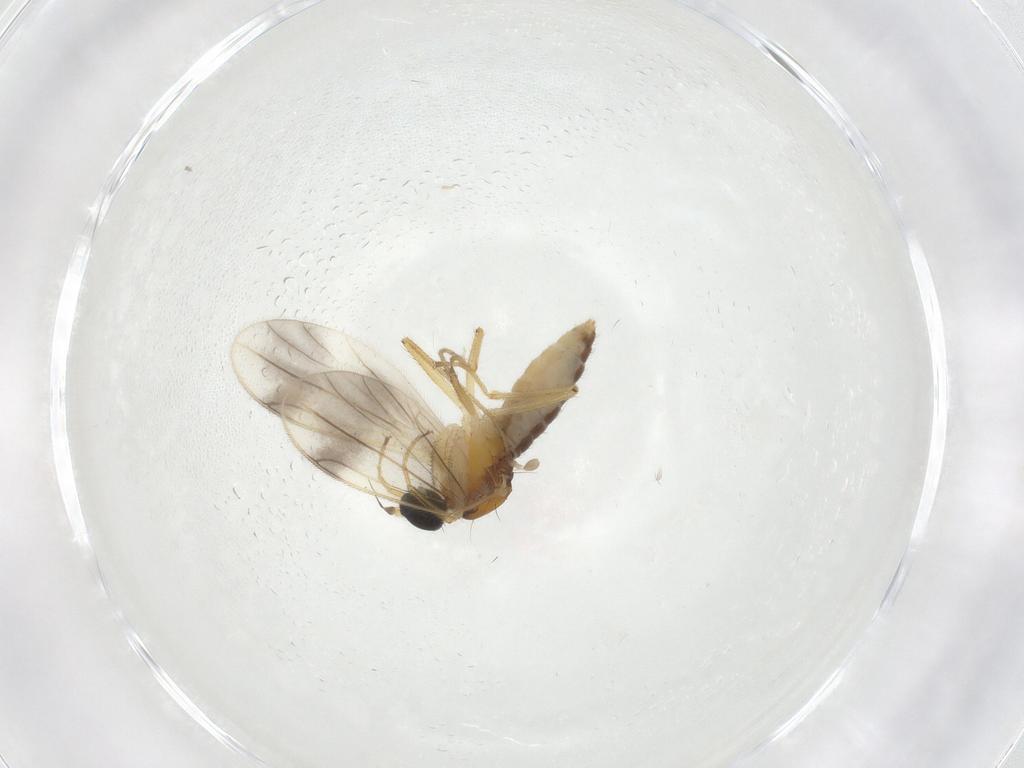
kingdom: Animalia
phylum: Arthropoda
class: Insecta
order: Diptera
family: Cecidomyiidae
